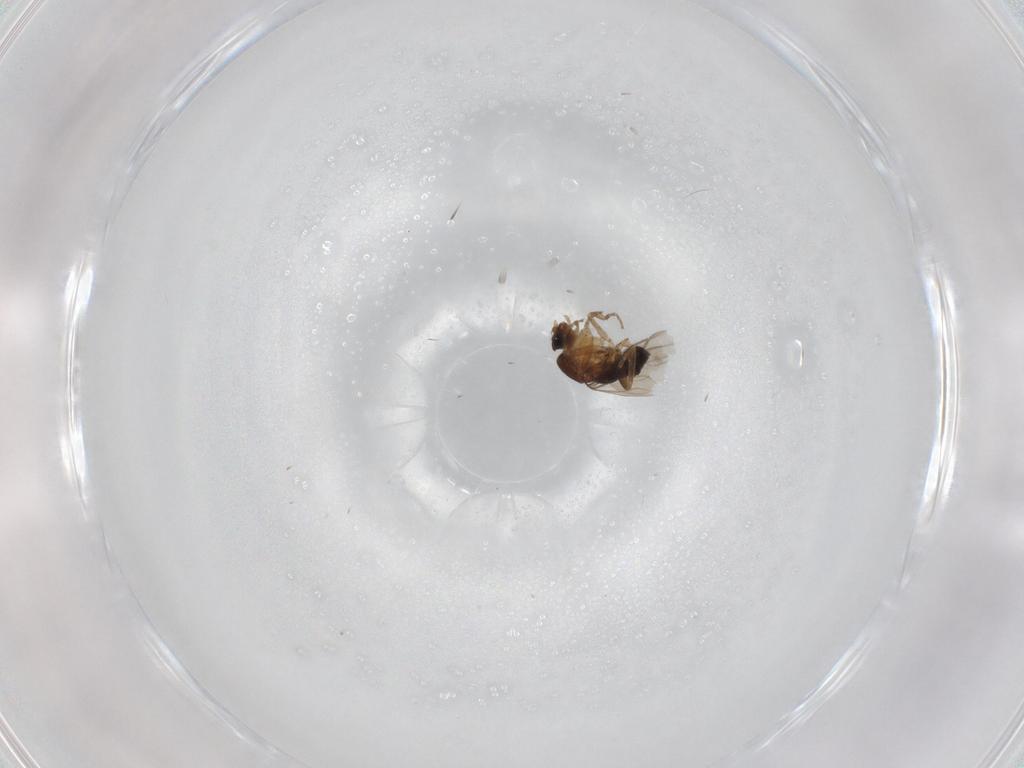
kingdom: Animalia
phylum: Arthropoda
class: Insecta
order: Diptera
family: Phoridae
